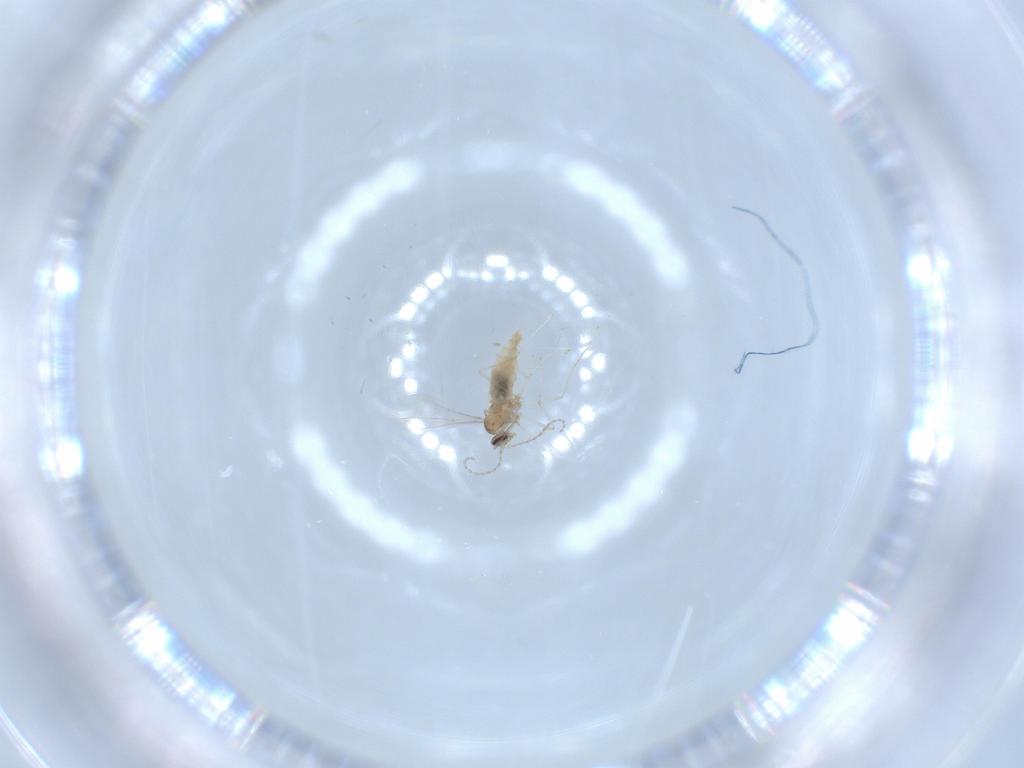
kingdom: Animalia
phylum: Arthropoda
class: Insecta
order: Diptera
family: Cecidomyiidae
